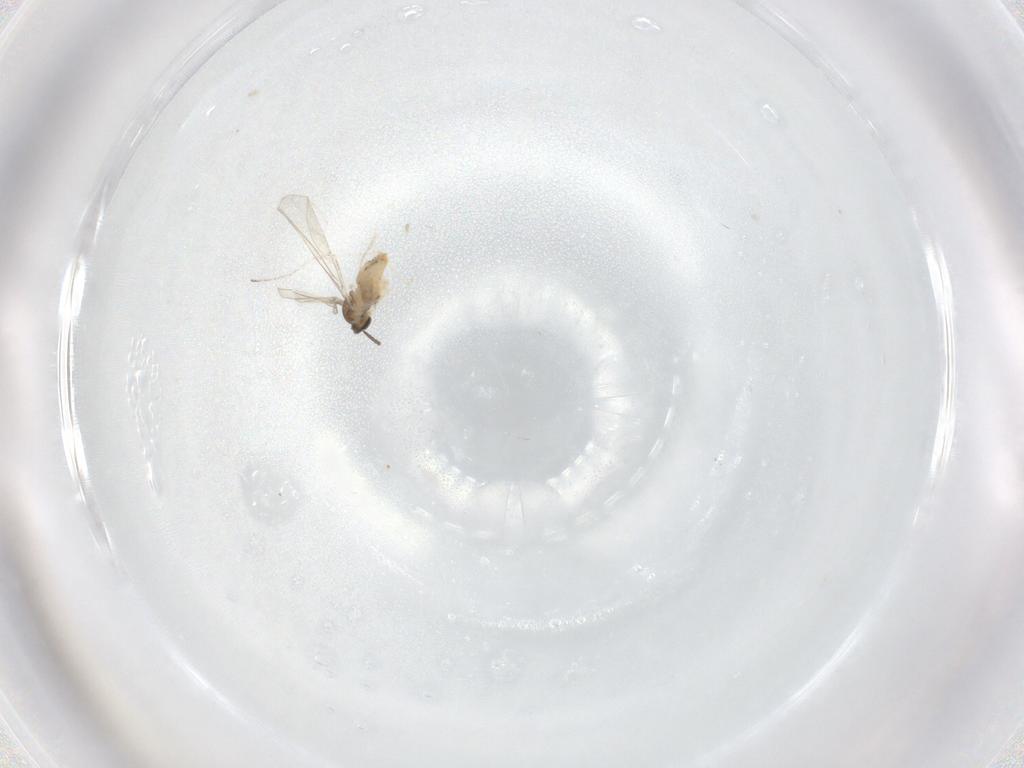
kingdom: Animalia
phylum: Arthropoda
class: Insecta
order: Diptera
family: Cecidomyiidae
